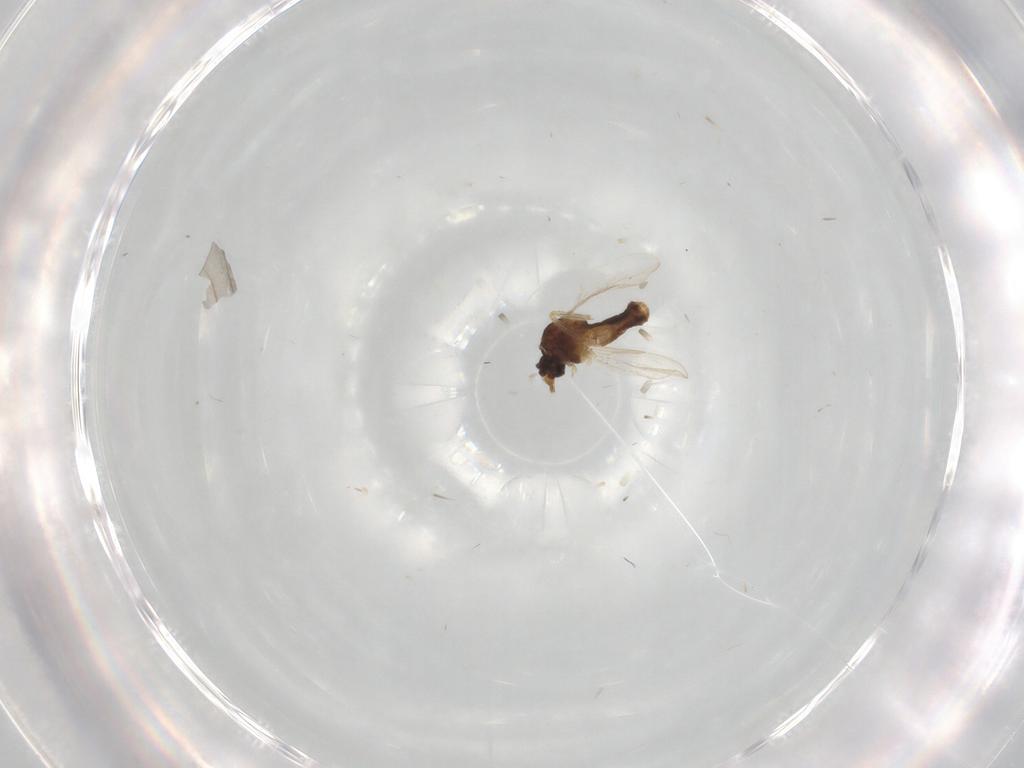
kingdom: Animalia
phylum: Arthropoda
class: Insecta
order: Diptera
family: Ceratopogonidae
